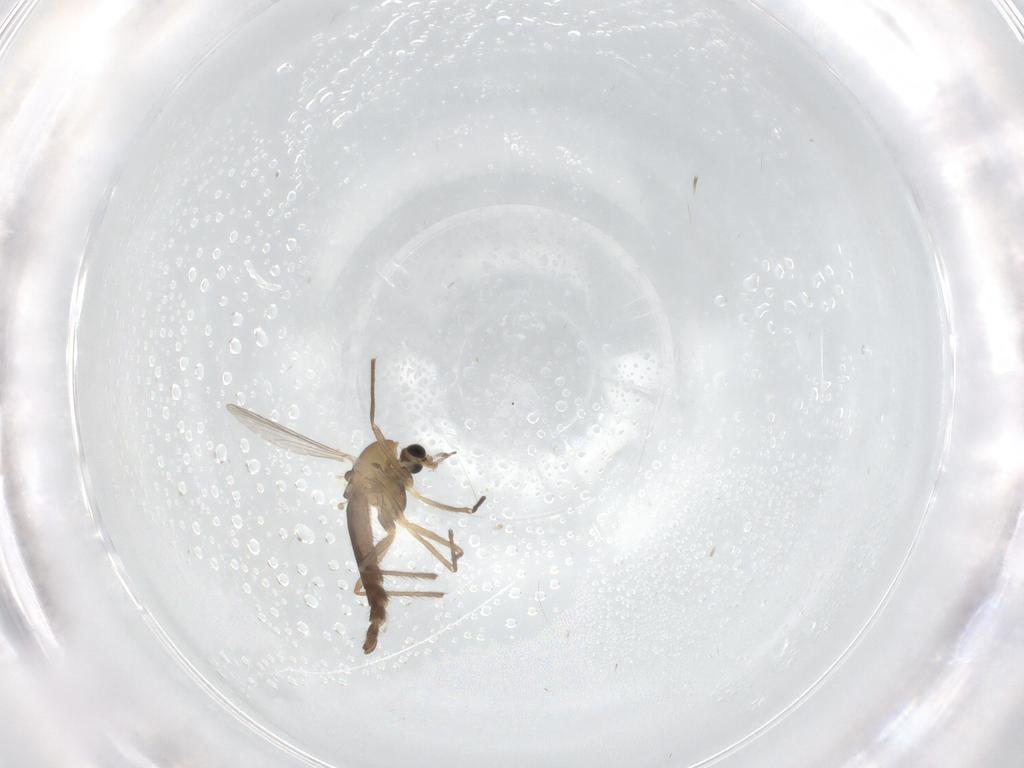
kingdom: Animalia
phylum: Arthropoda
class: Insecta
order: Diptera
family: Chironomidae
